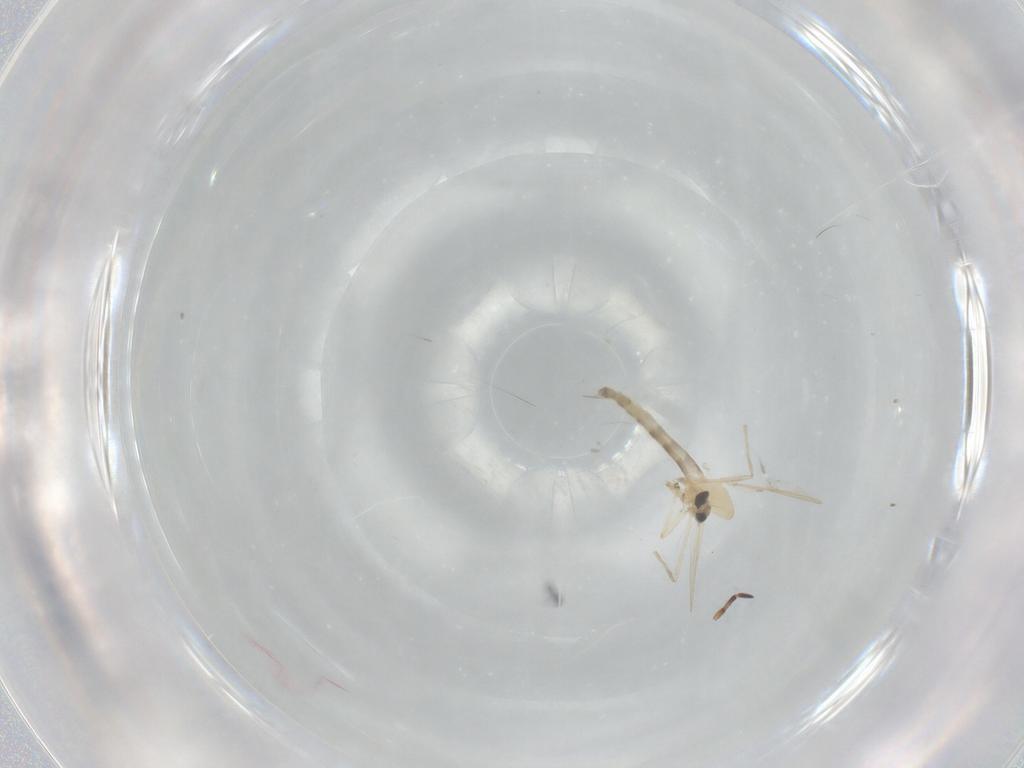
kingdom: Animalia
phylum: Arthropoda
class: Insecta
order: Diptera
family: Chironomidae
